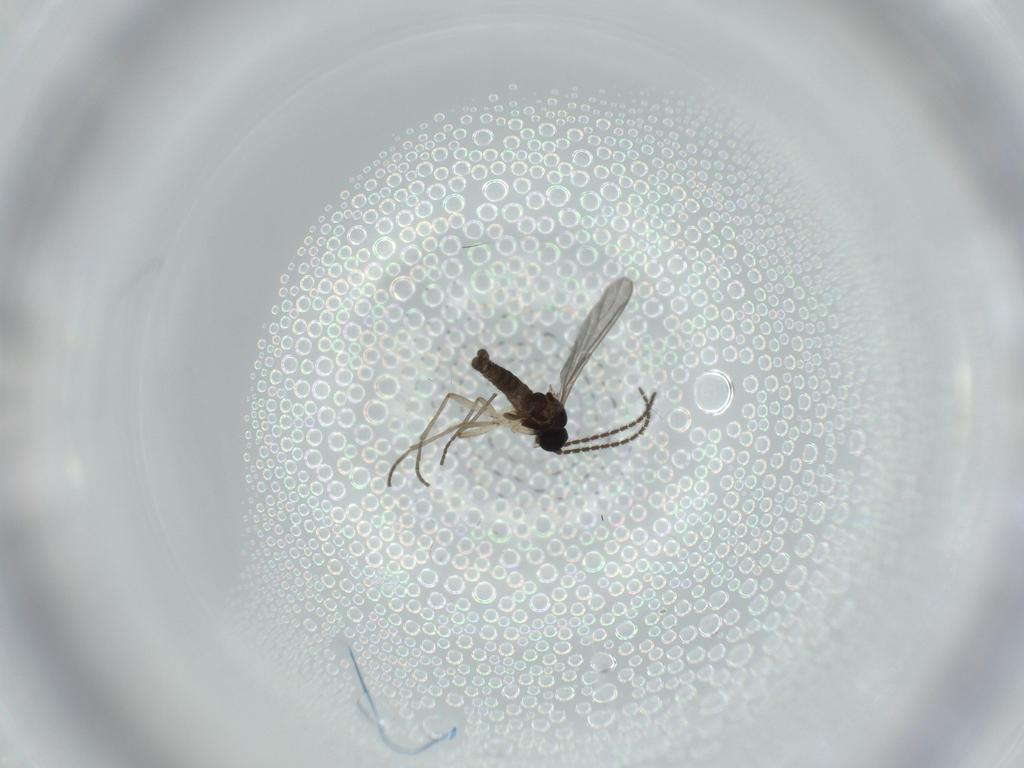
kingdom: Animalia
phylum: Arthropoda
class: Insecta
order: Diptera
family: Sciaridae
